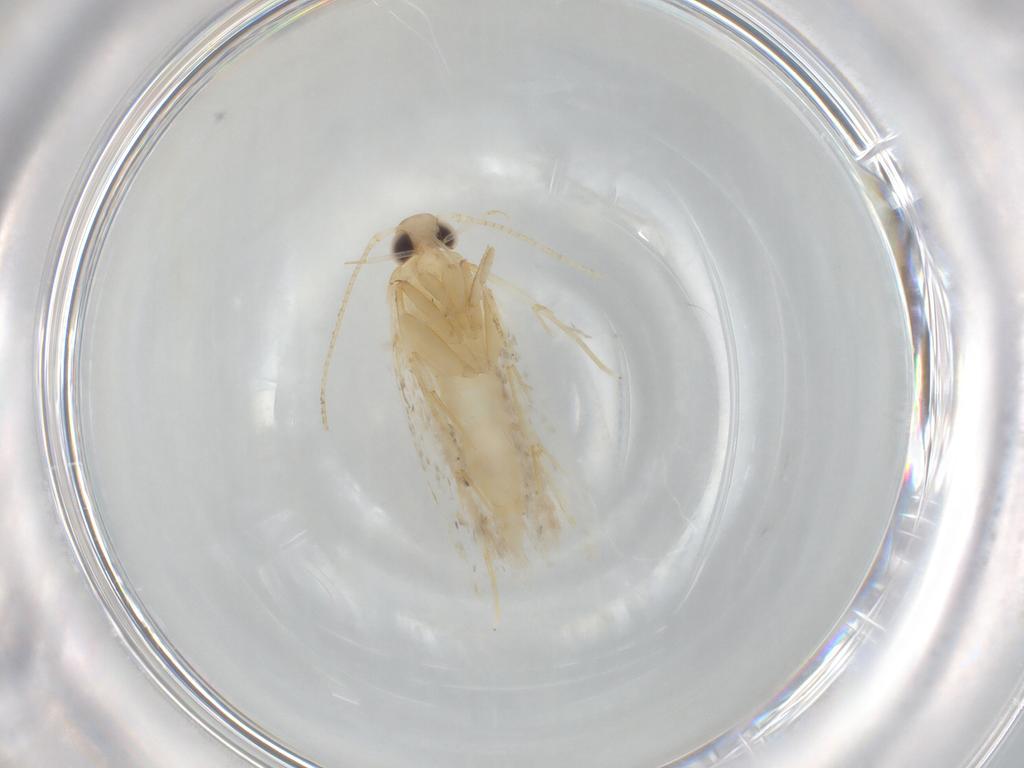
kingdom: Animalia
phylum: Arthropoda
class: Insecta
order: Lepidoptera
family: Autostichidae
